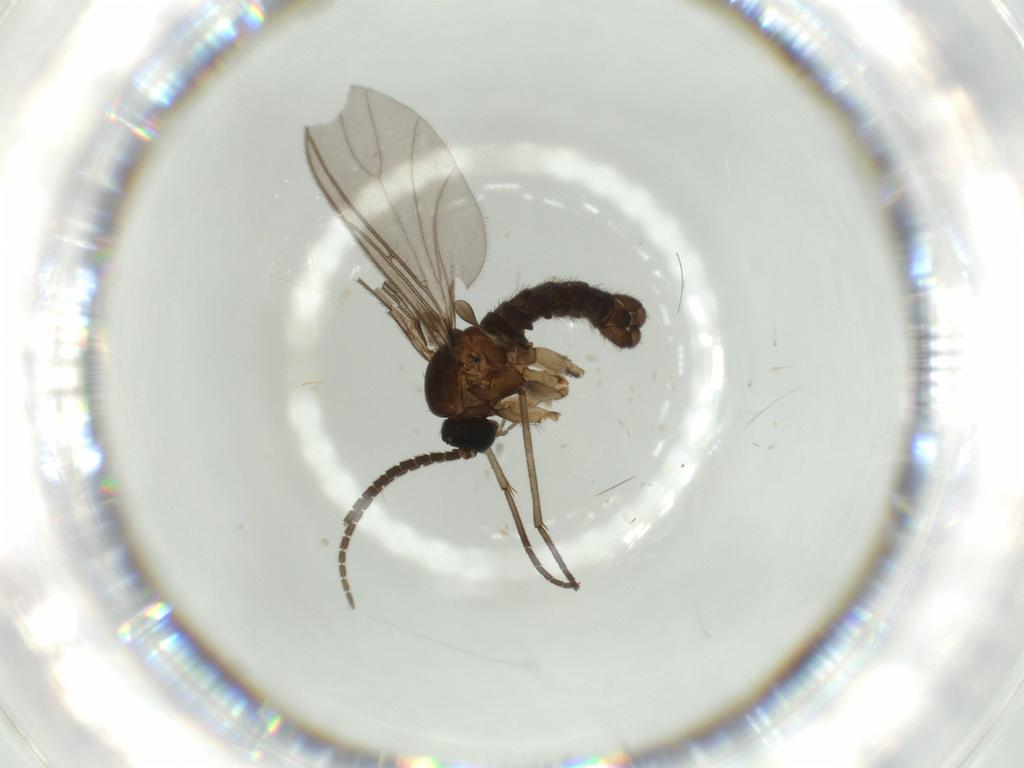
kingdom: Animalia
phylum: Arthropoda
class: Insecta
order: Diptera
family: Sciaridae
